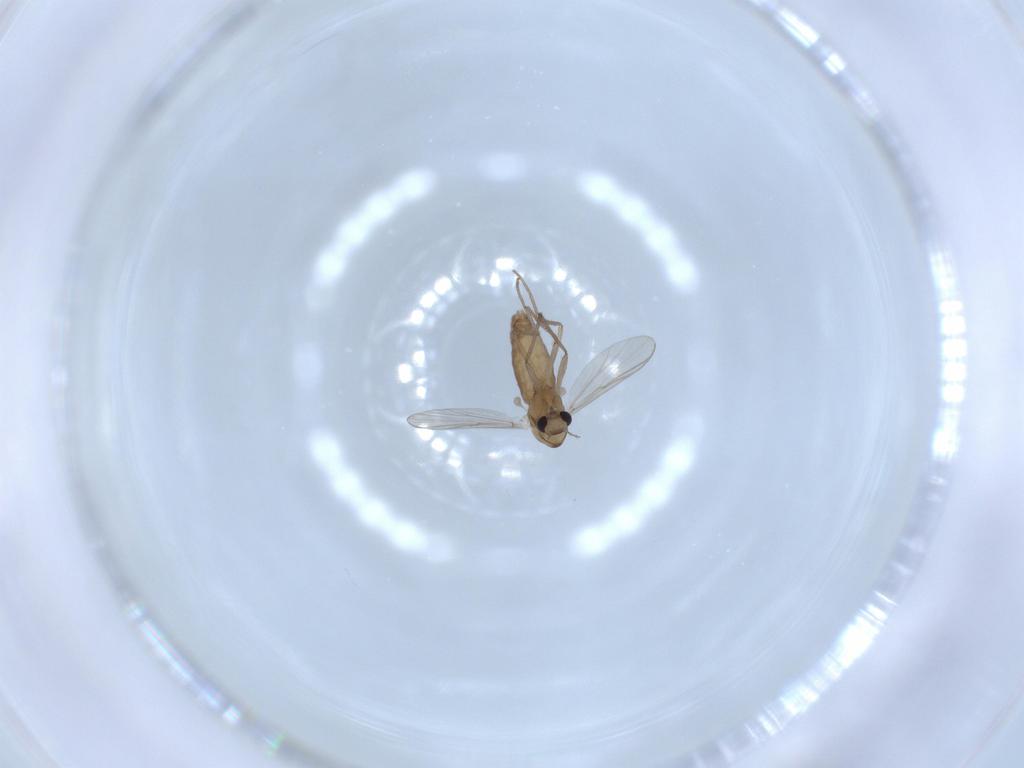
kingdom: Animalia
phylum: Arthropoda
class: Insecta
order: Diptera
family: Chironomidae
